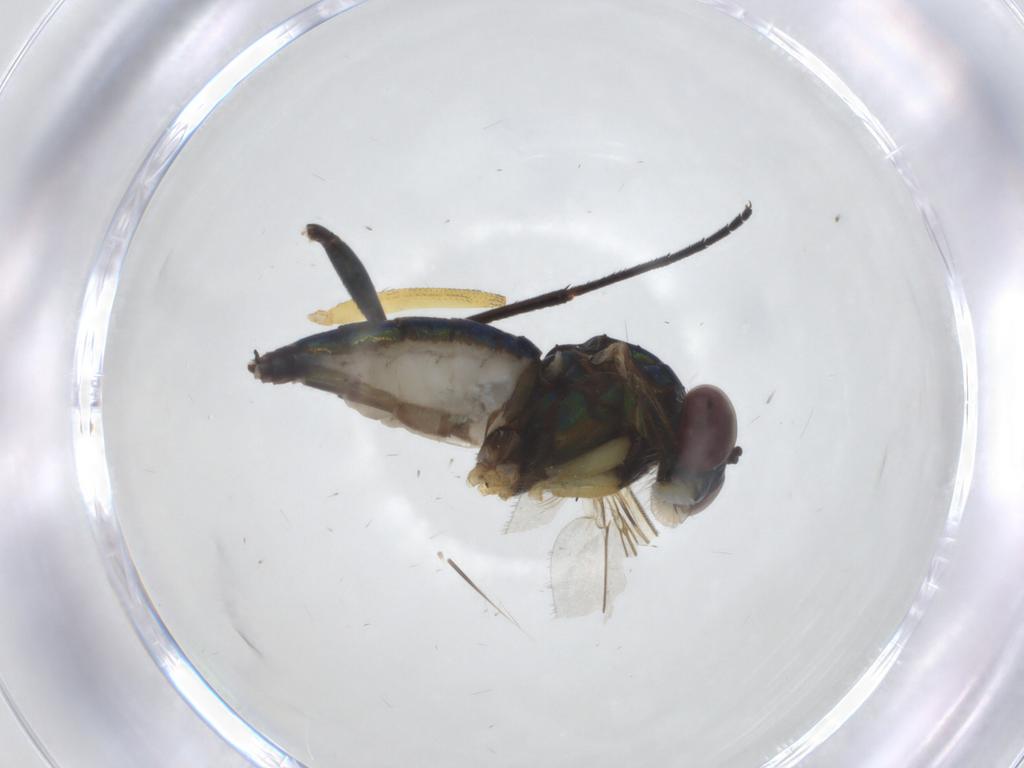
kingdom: Animalia
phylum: Arthropoda
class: Insecta
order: Diptera
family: Dolichopodidae
